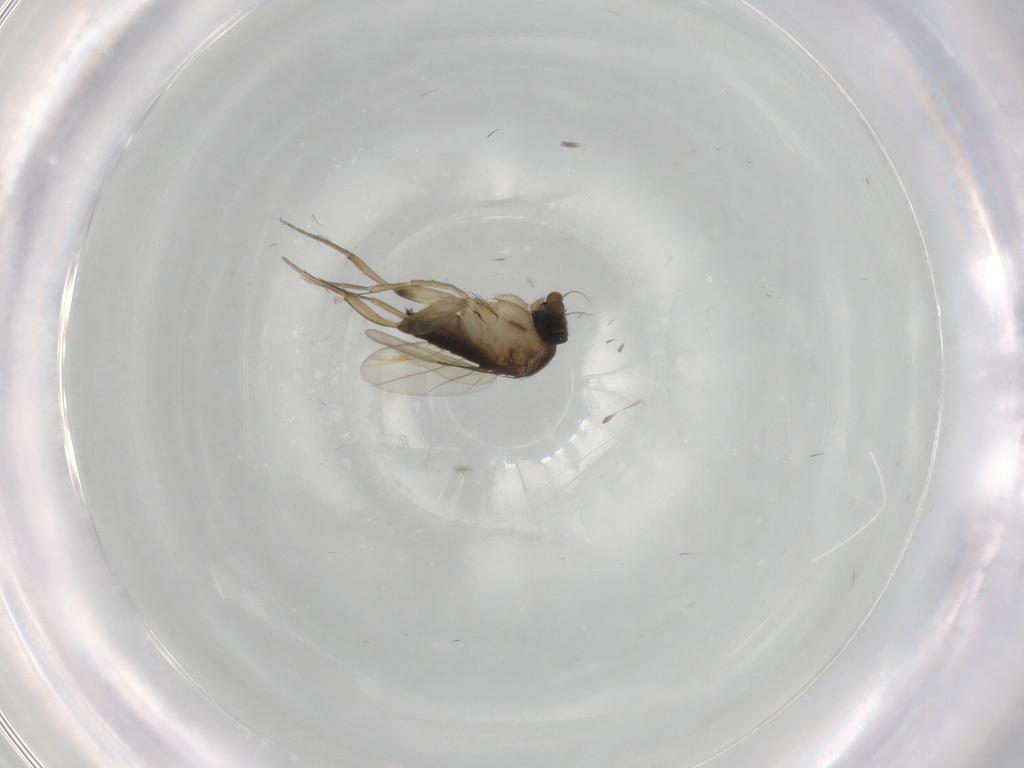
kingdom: Animalia
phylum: Arthropoda
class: Insecta
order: Diptera
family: Phoridae
